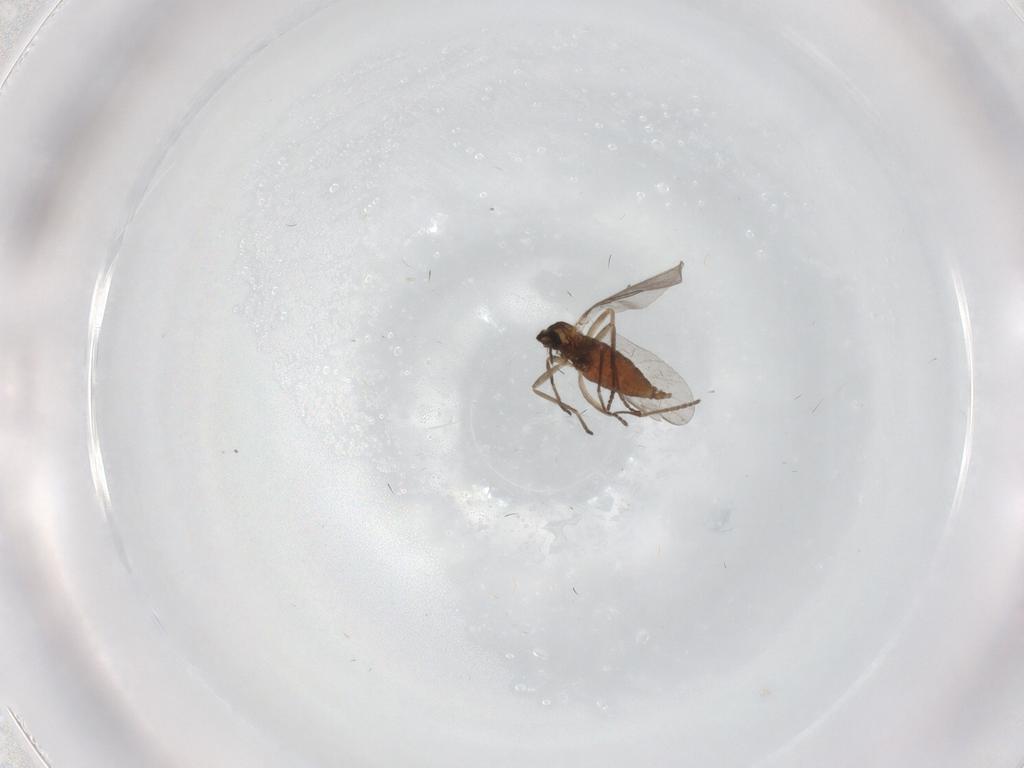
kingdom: Animalia
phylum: Arthropoda
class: Insecta
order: Diptera
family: Cecidomyiidae
